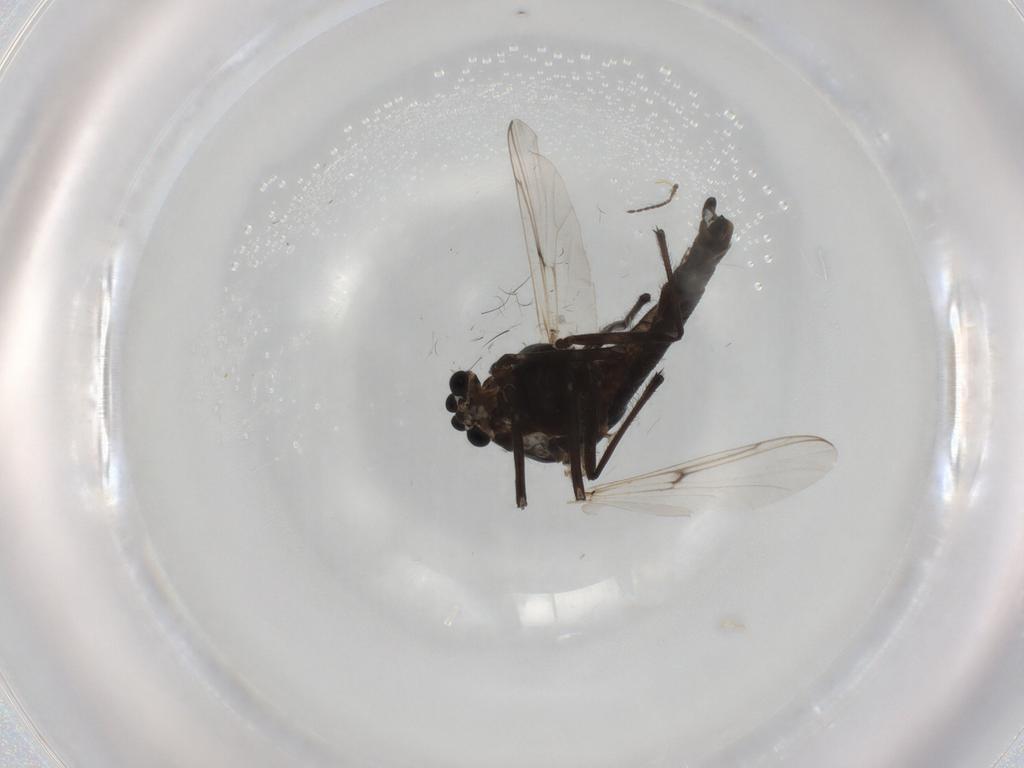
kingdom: Animalia
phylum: Arthropoda
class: Insecta
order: Diptera
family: Chironomidae
